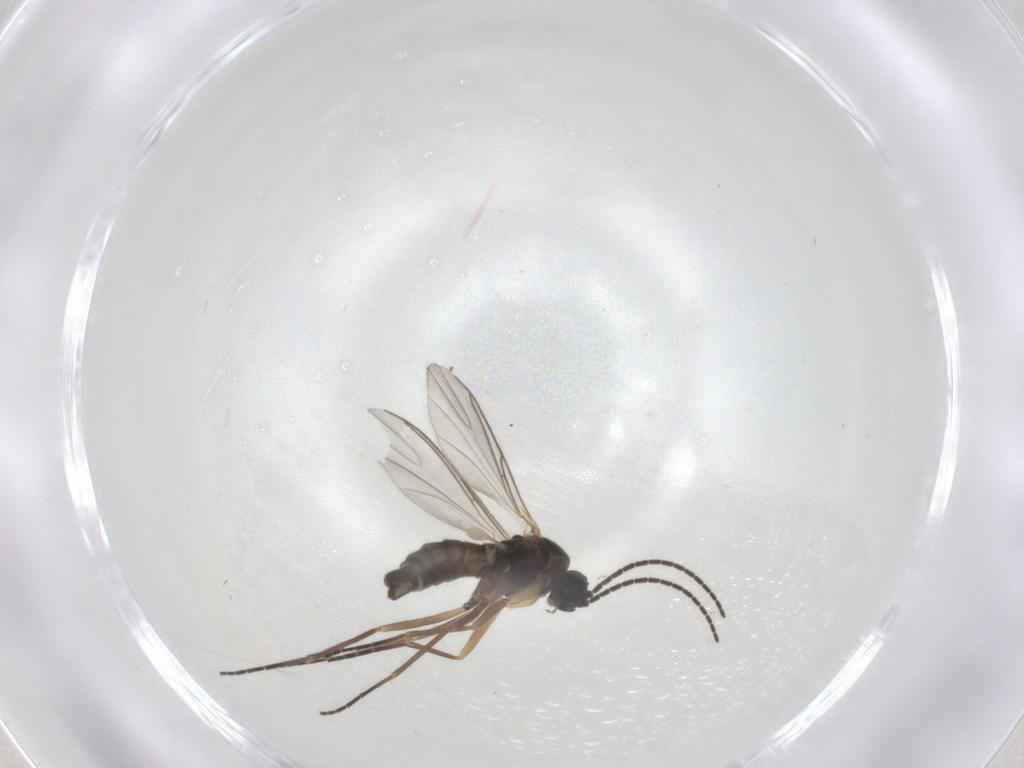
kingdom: Animalia
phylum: Arthropoda
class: Insecta
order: Diptera
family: Sciaridae
